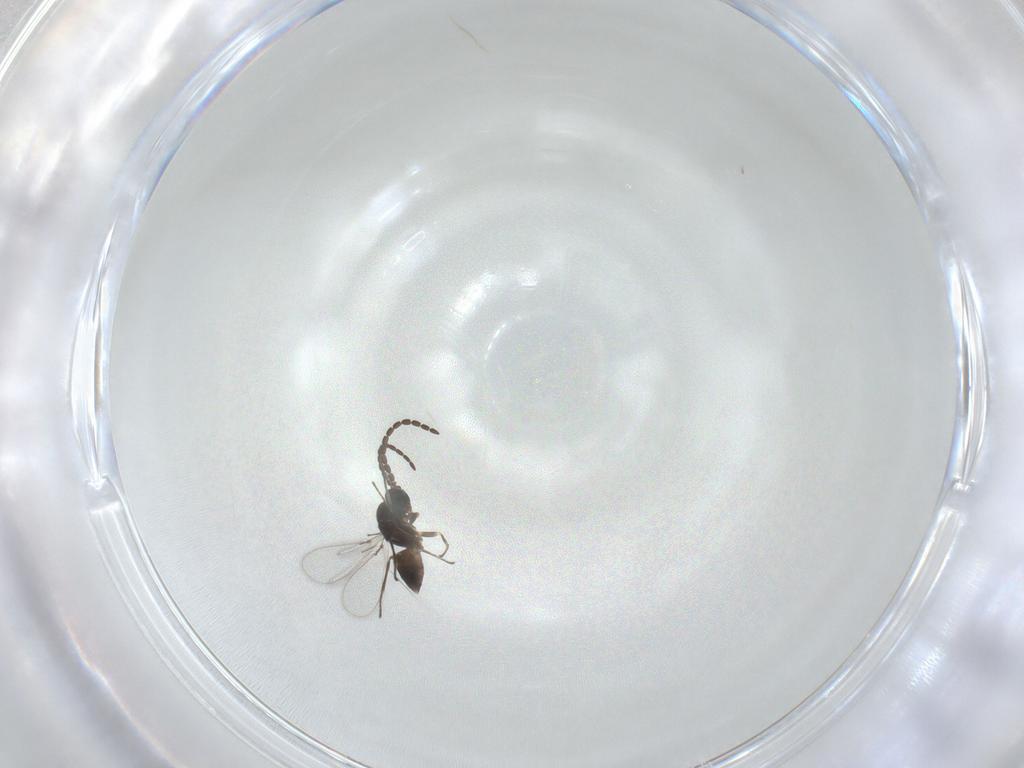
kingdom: Animalia
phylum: Arthropoda
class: Insecta
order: Hymenoptera
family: Mymaridae
